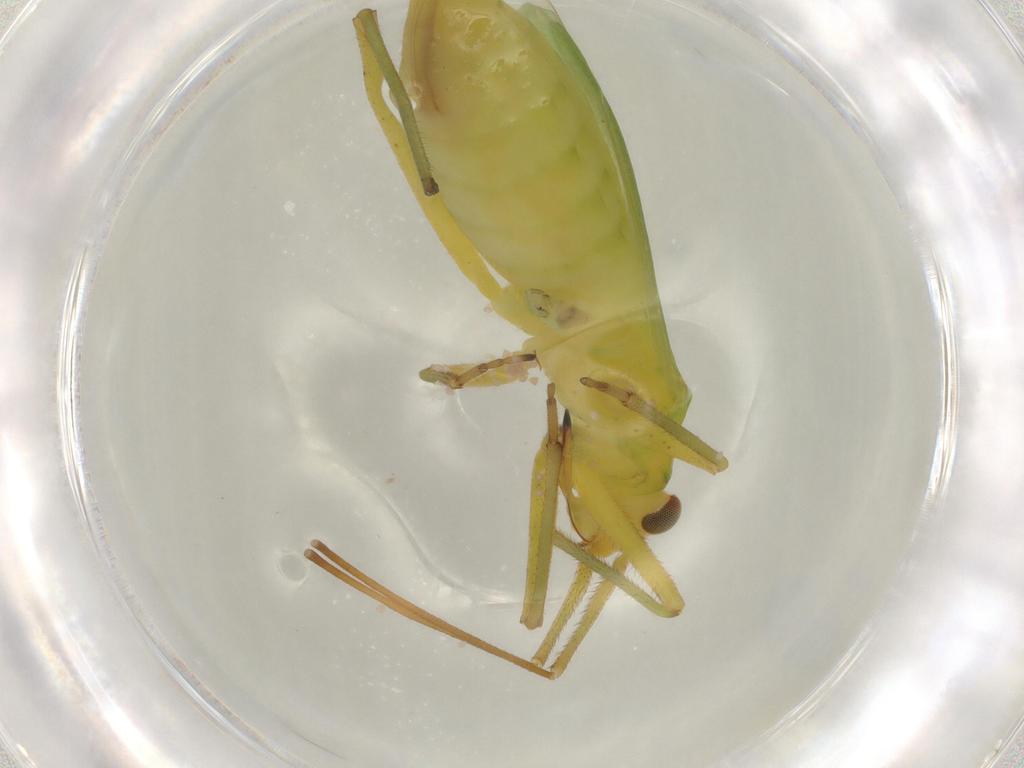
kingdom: Animalia
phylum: Arthropoda
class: Insecta
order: Hemiptera
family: Miridae
